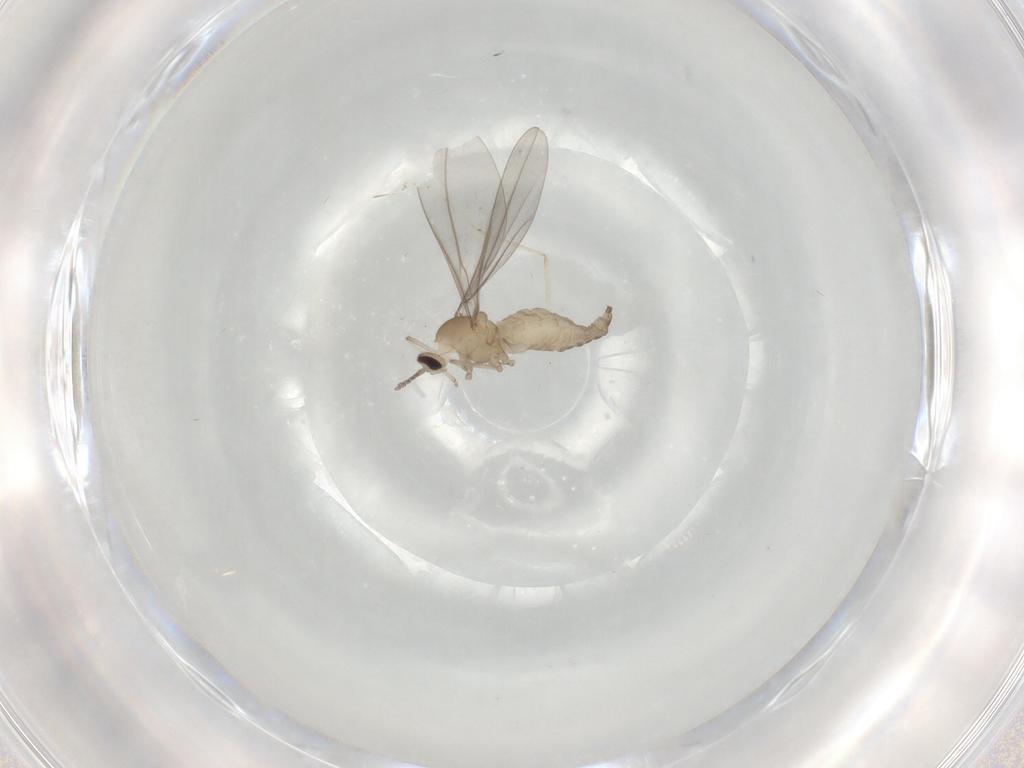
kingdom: Animalia
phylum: Arthropoda
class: Insecta
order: Diptera
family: Cecidomyiidae
